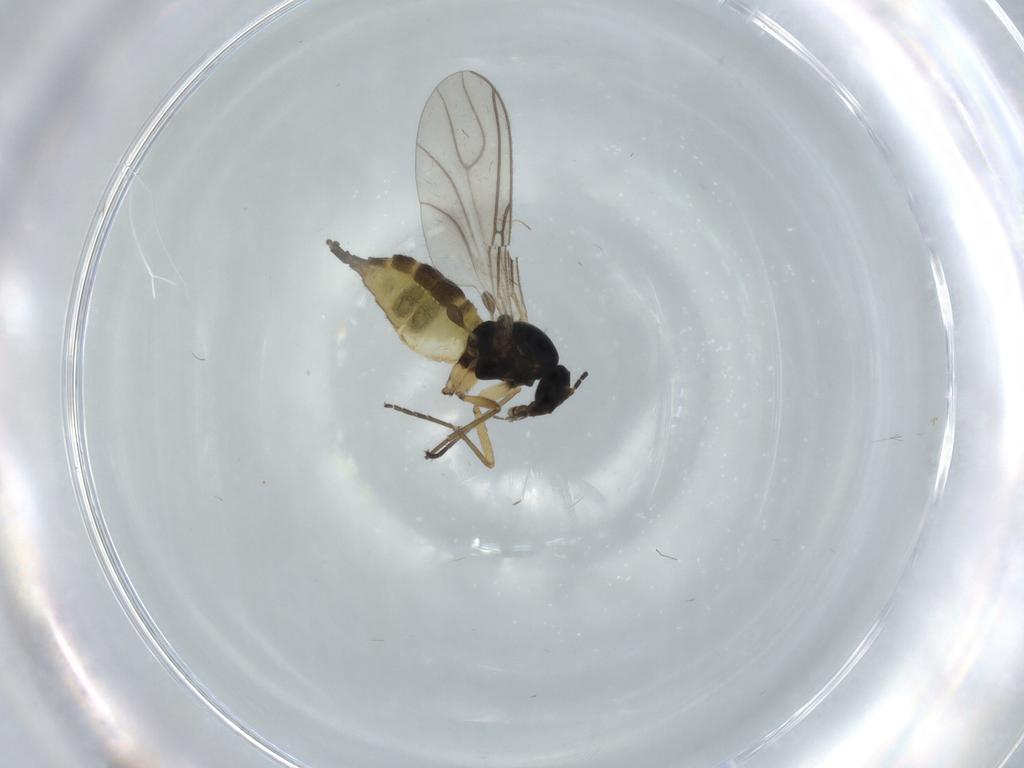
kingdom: Animalia
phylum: Arthropoda
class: Insecta
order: Diptera
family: Sciaridae
